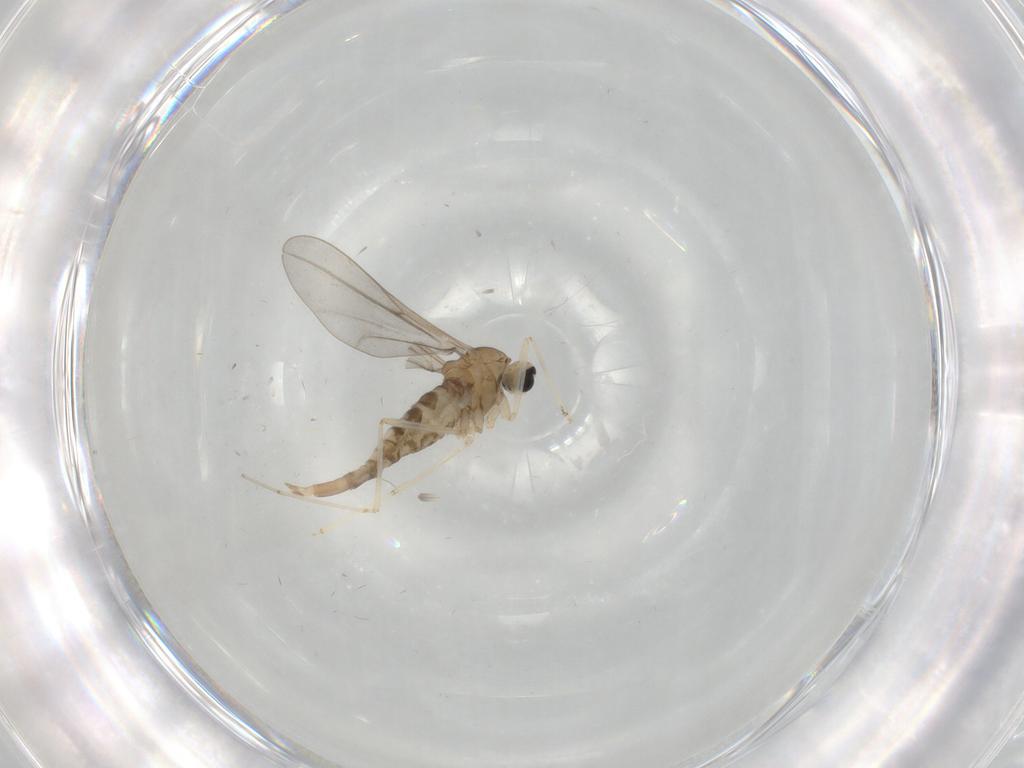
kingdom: Animalia
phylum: Arthropoda
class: Insecta
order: Diptera
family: Cecidomyiidae
